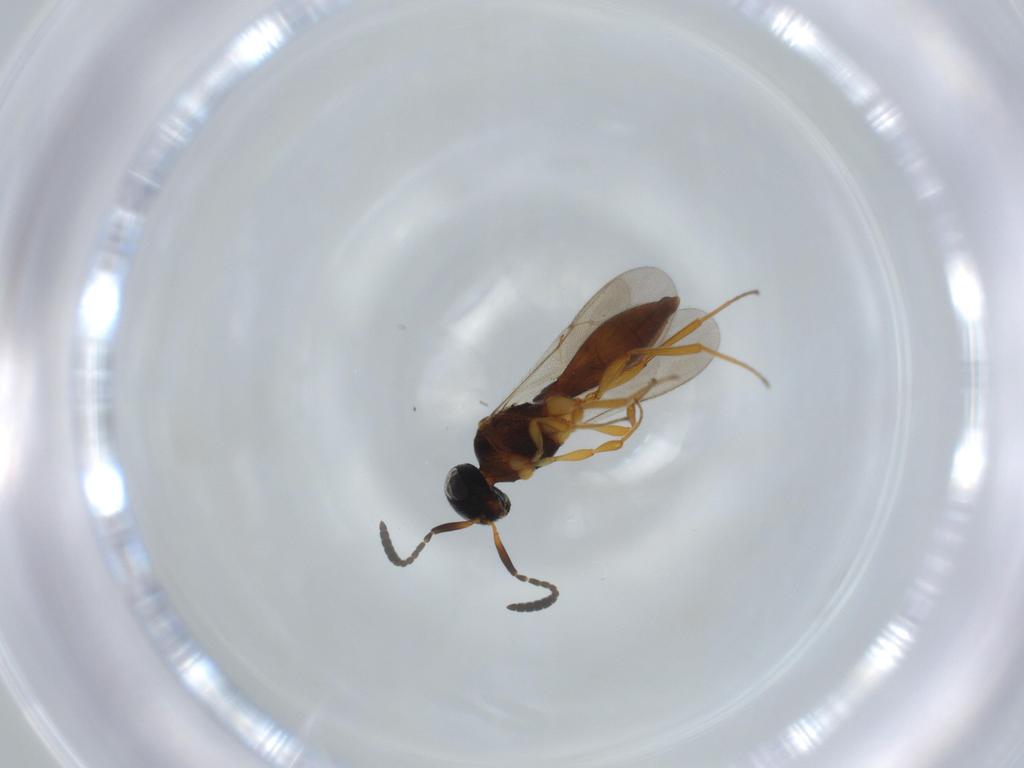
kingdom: Animalia
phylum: Arthropoda
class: Insecta
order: Hymenoptera
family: Scelionidae
